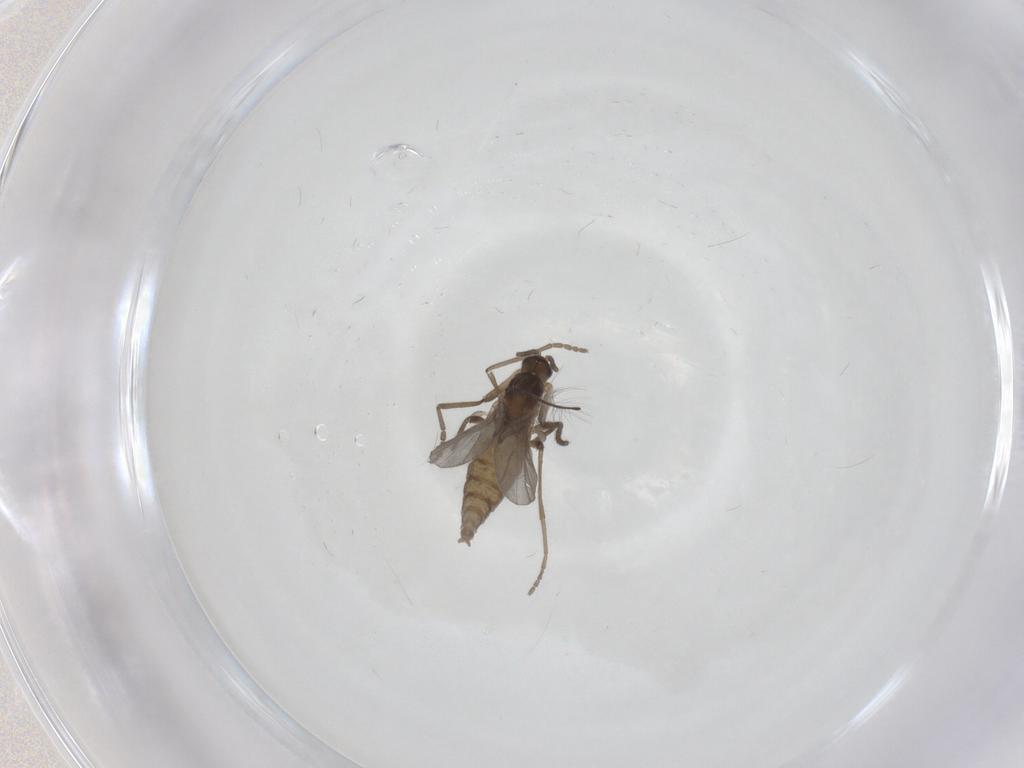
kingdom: Animalia
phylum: Arthropoda
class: Insecta
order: Diptera
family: Cecidomyiidae
